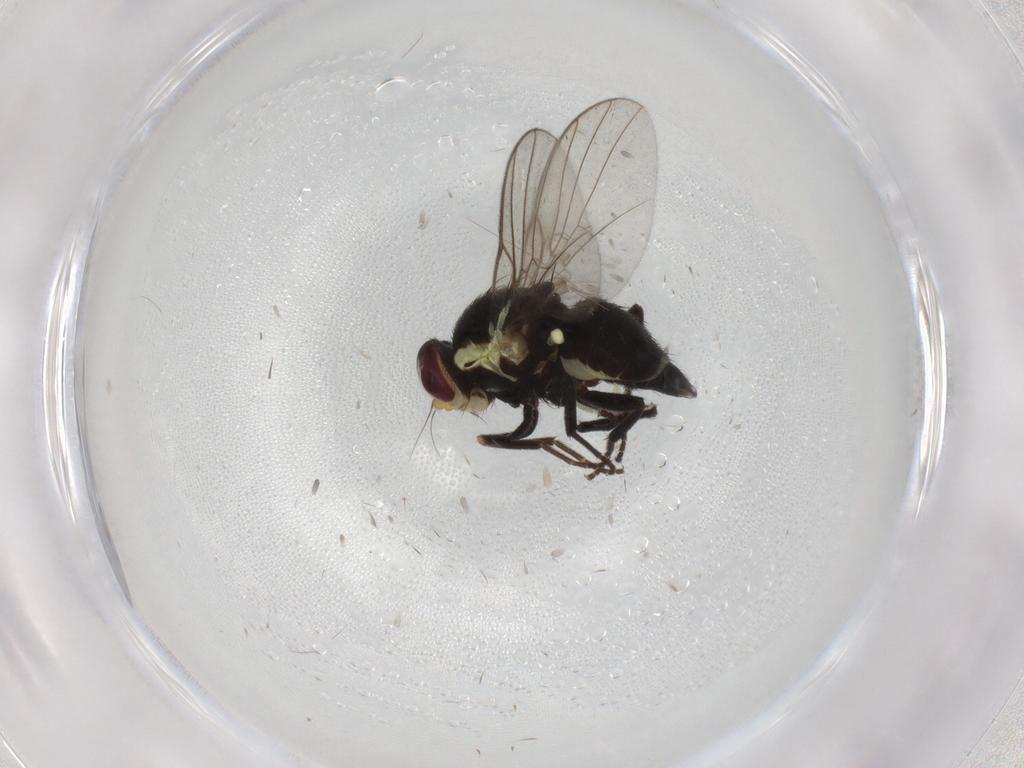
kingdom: Animalia
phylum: Arthropoda
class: Insecta
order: Diptera
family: Agromyzidae
